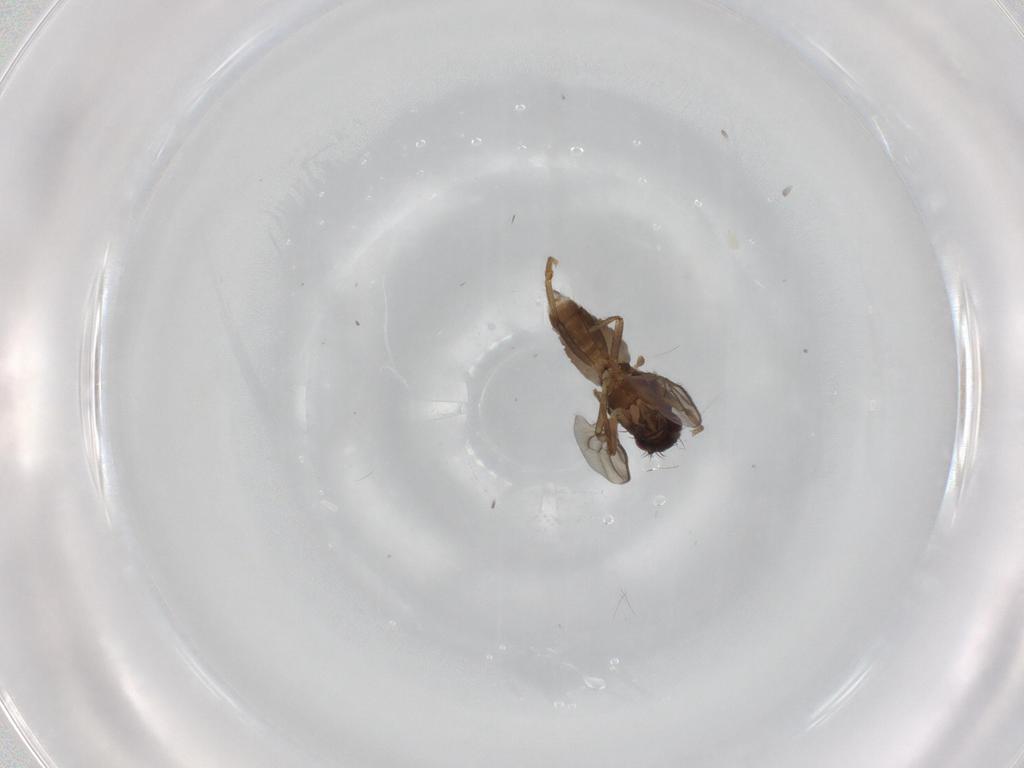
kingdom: Animalia
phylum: Arthropoda
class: Insecta
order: Diptera
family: Sphaeroceridae
